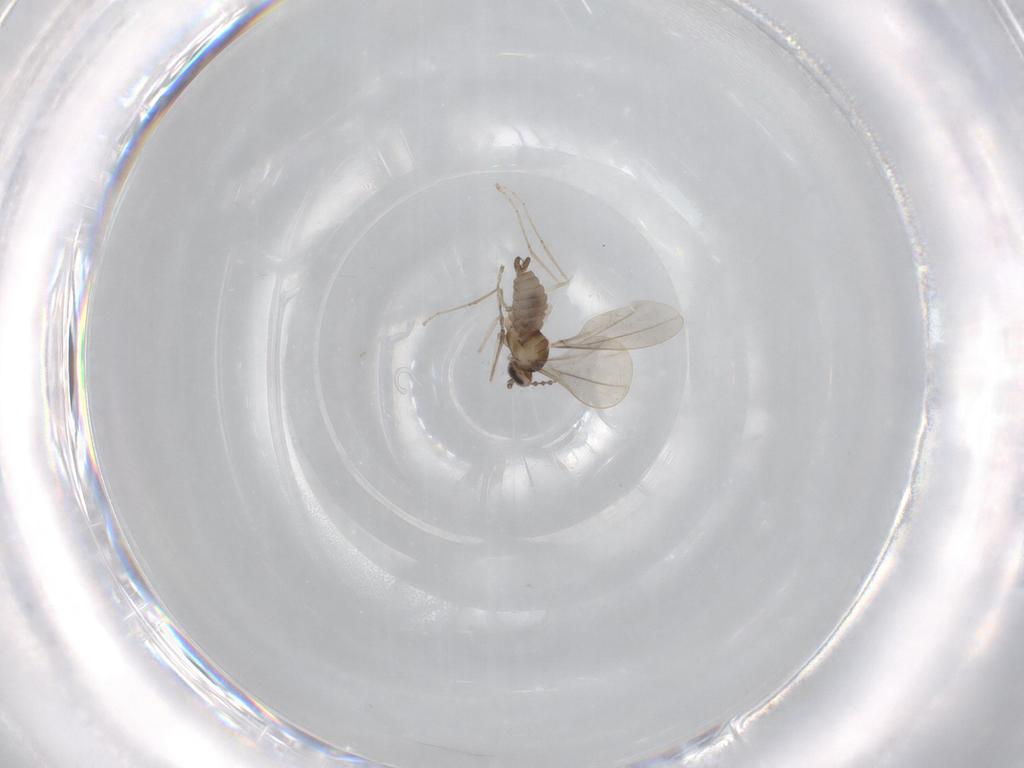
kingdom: Animalia
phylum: Arthropoda
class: Insecta
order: Diptera
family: Cecidomyiidae
